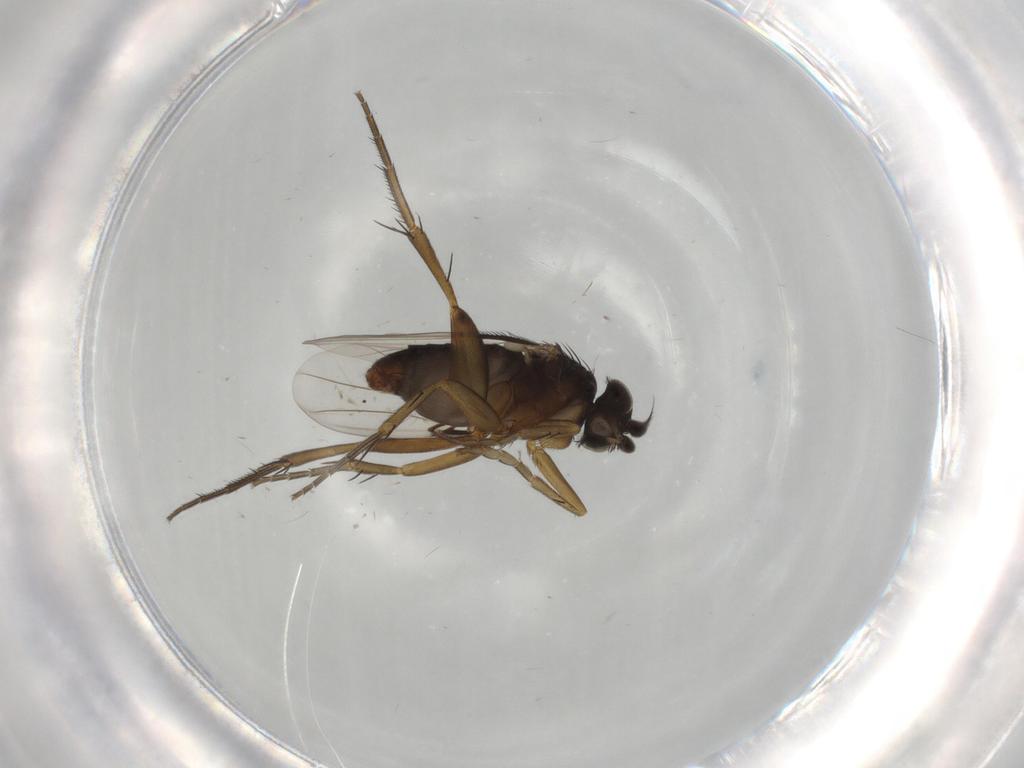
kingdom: Animalia
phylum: Arthropoda
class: Insecta
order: Diptera
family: Phoridae
